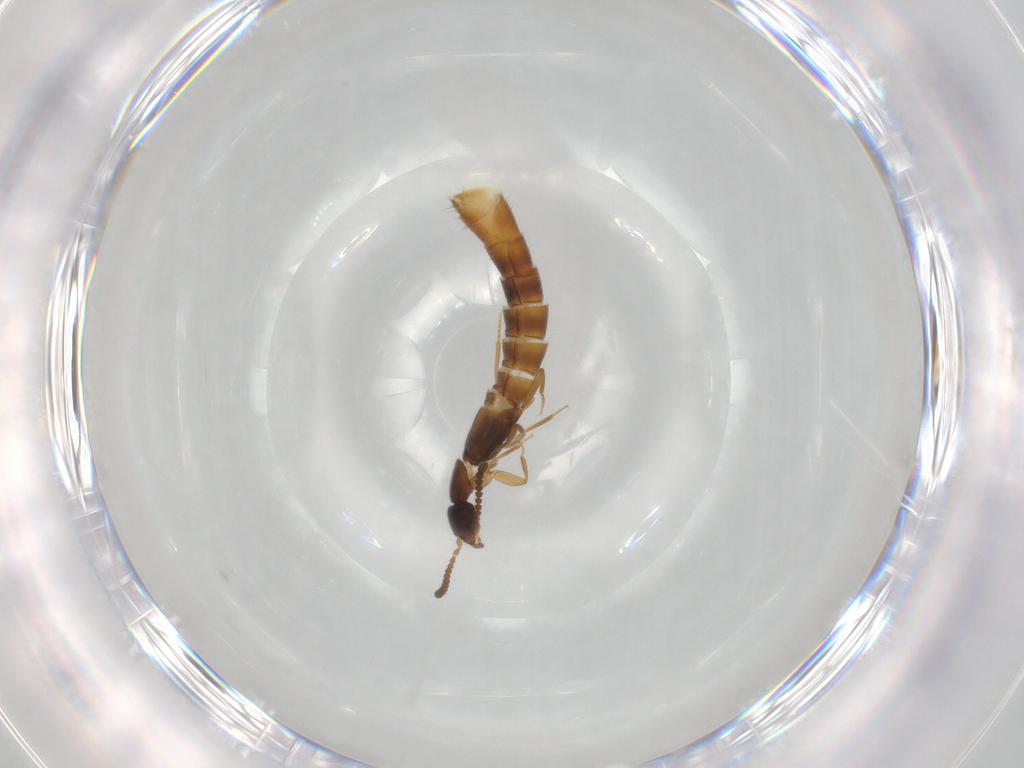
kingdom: Animalia
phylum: Arthropoda
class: Insecta
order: Coleoptera
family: Staphylinidae
